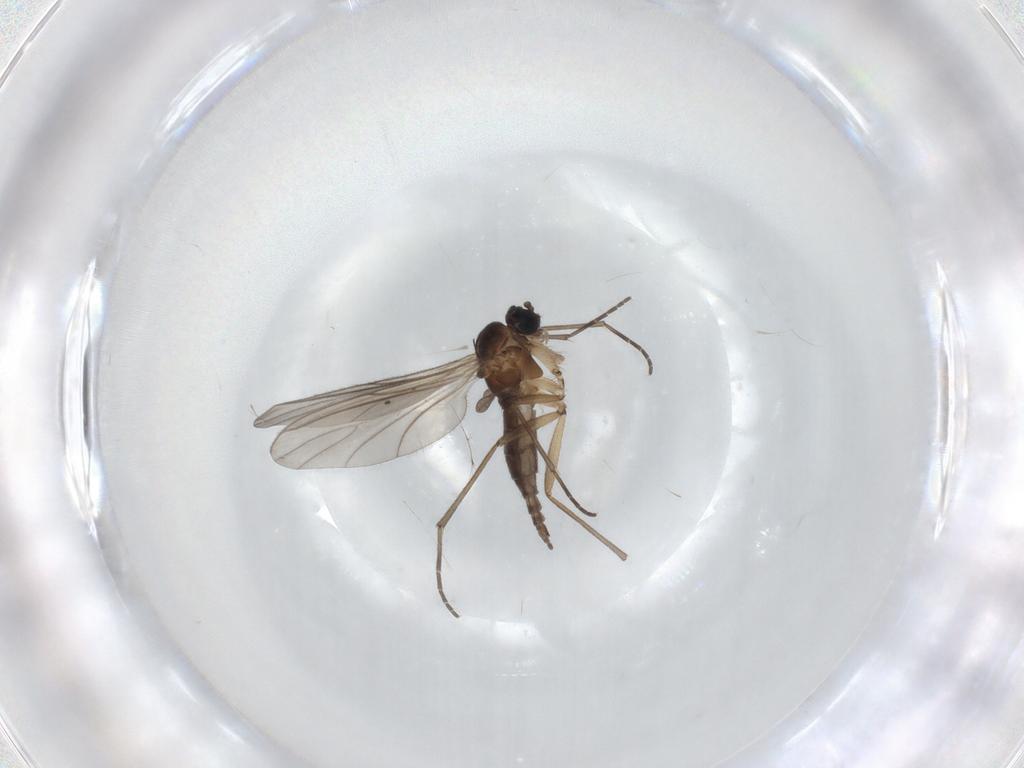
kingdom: Animalia
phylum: Arthropoda
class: Insecta
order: Diptera
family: Sciaridae
